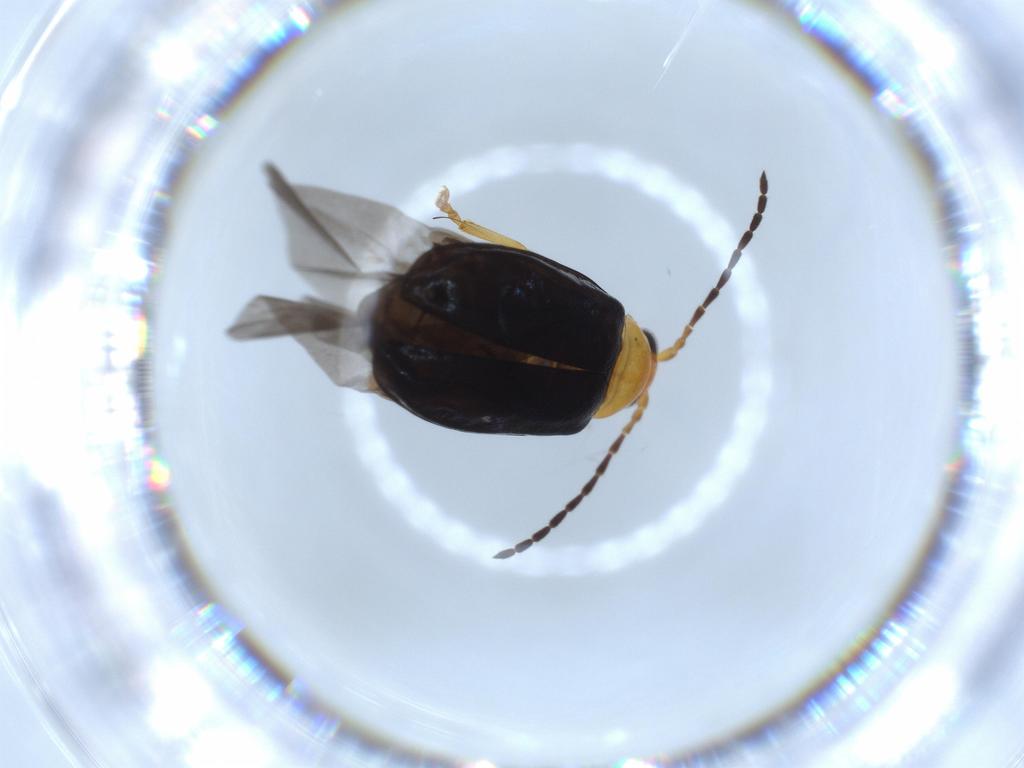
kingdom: Animalia
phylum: Arthropoda
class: Insecta
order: Coleoptera
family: Chrysomelidae
